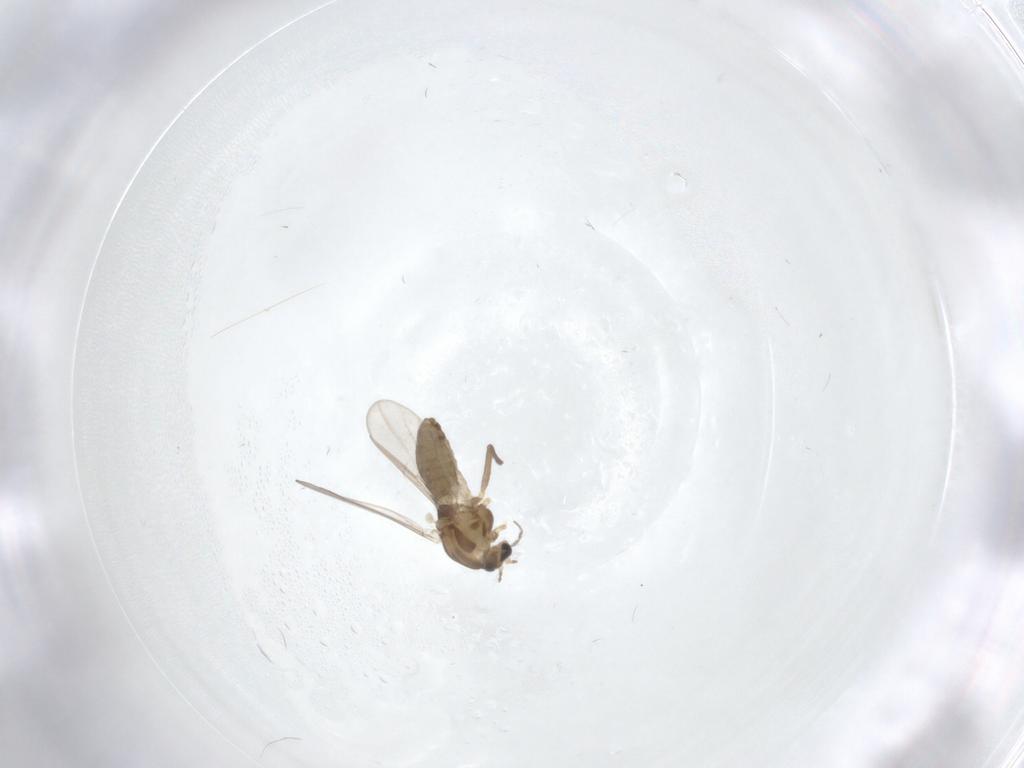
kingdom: Animalia
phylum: Arthropoda
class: Insecta
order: Diptera
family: Chironomidae
